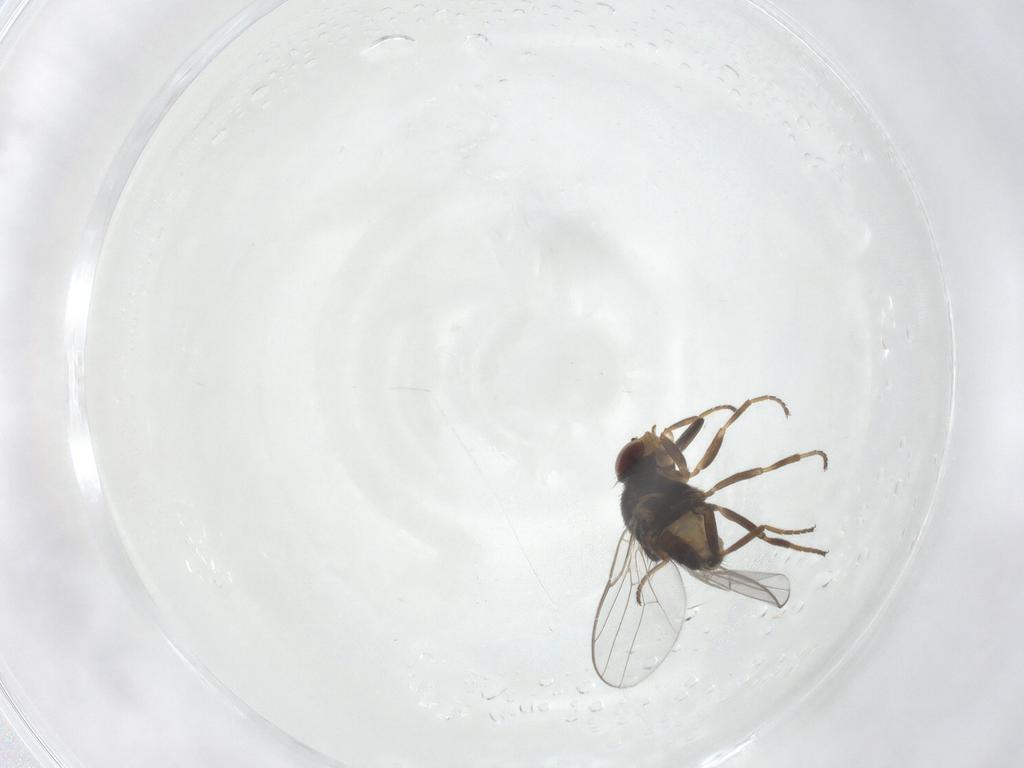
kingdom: Animalia
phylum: Arthropoda
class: Insecta
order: Diptera
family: Chloropidae
